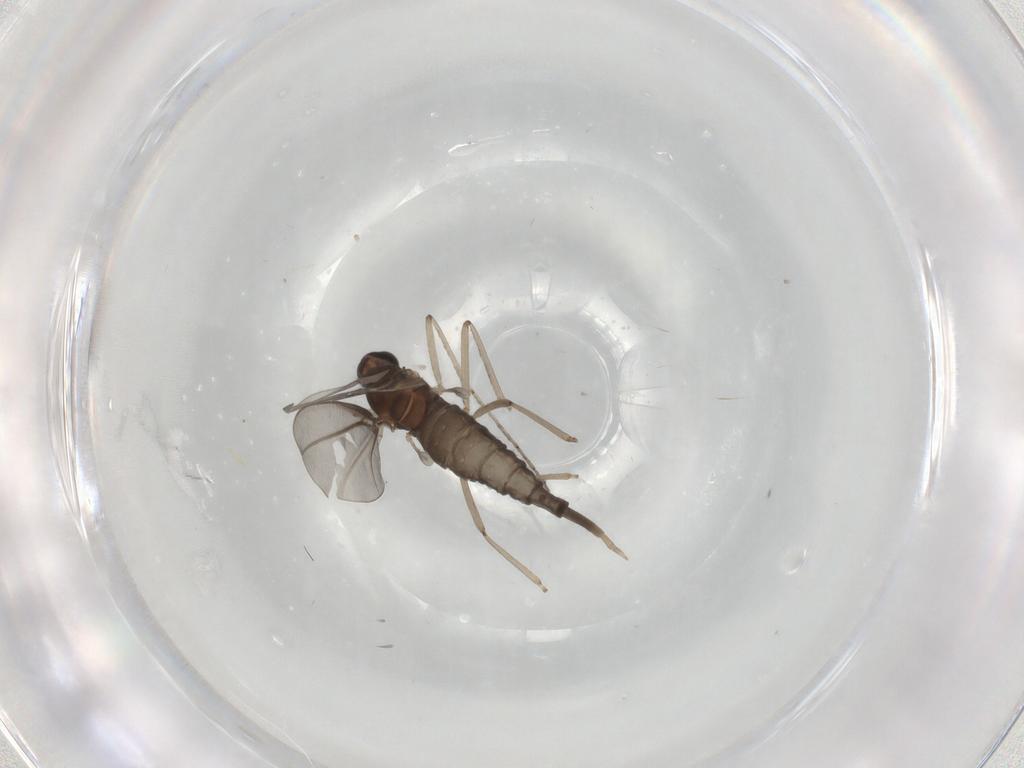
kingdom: Animalia
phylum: Arthropoda
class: Insecta
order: Diptera
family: Cecidomyiidae
